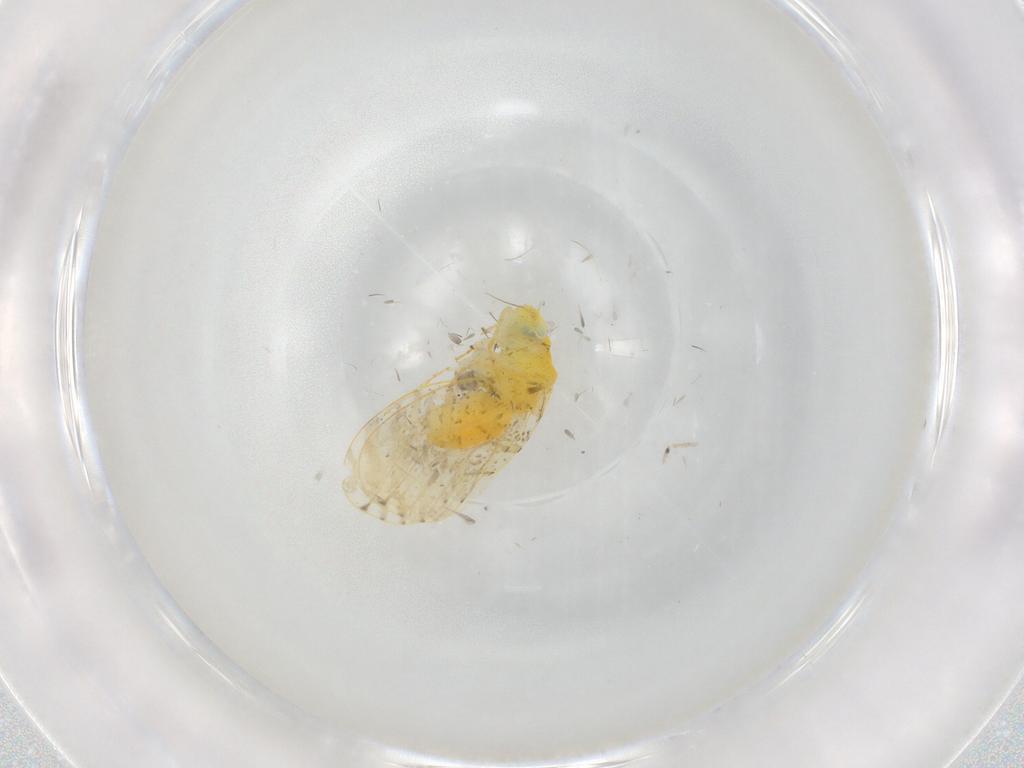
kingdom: Animalia
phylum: Arthropoda
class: Insecta
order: Hemiptera
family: Aleyrodidae
